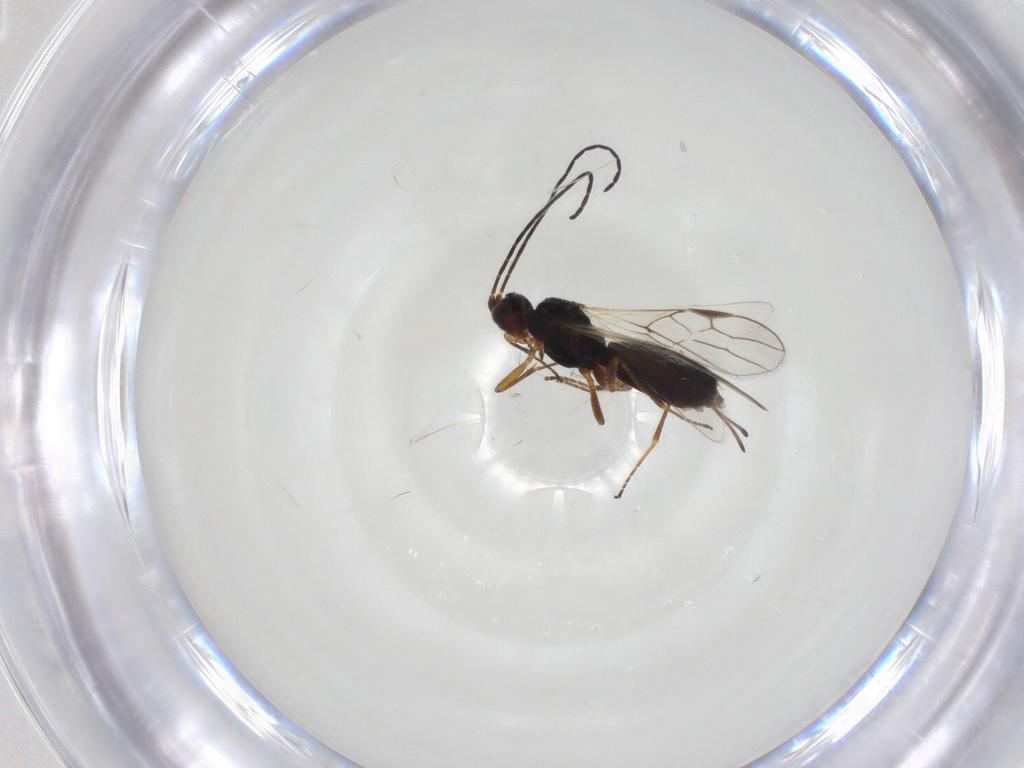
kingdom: Animalia
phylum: Arthropoda
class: Insecta
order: Hymenoptera
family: Braconidae
